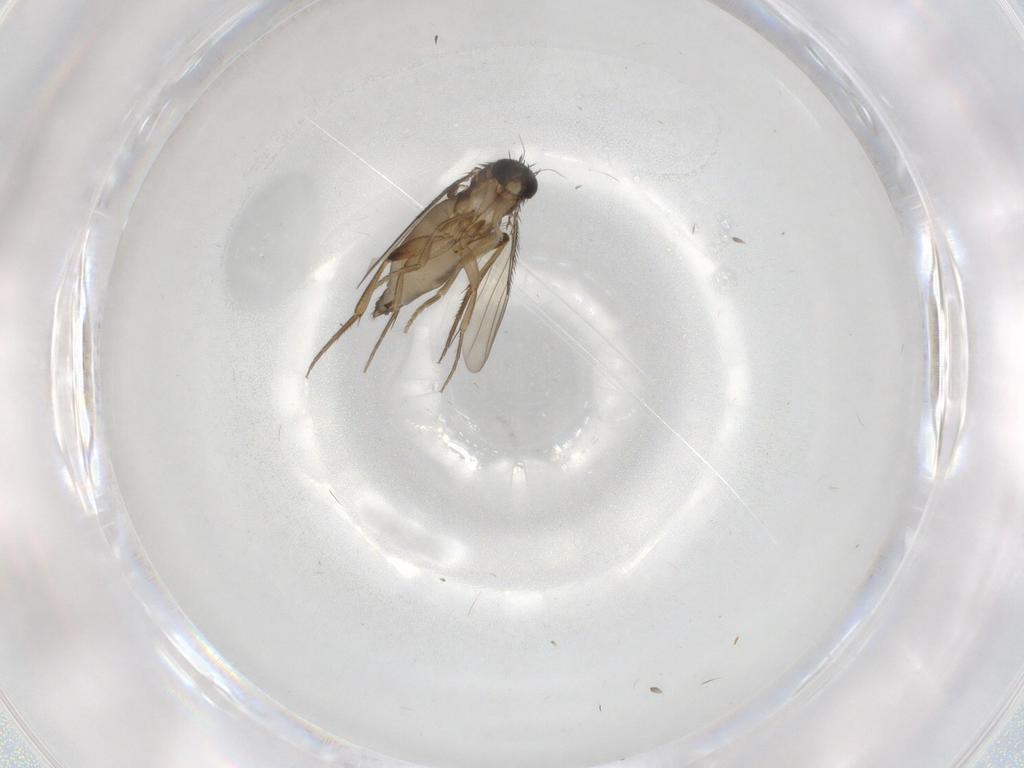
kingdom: Animalia
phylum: Arthropoda
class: Insecta
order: Diptera
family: Phoridae
